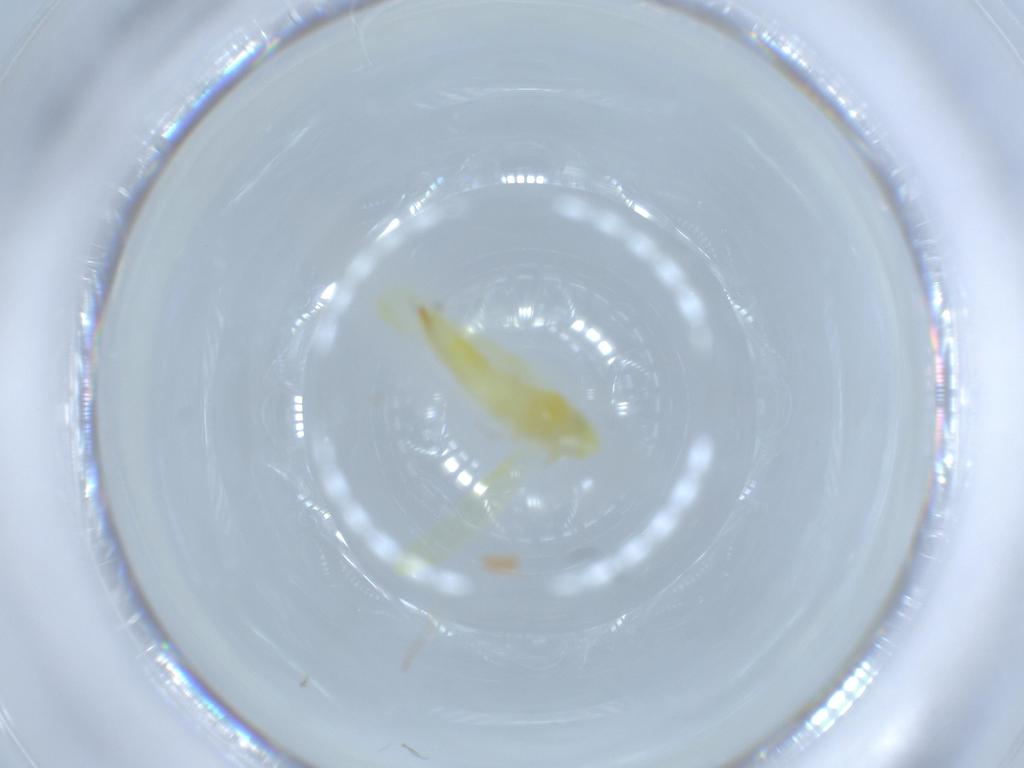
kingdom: Animalia
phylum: Arthropoda
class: Insecta
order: Hemiptera
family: Cicadellidae
